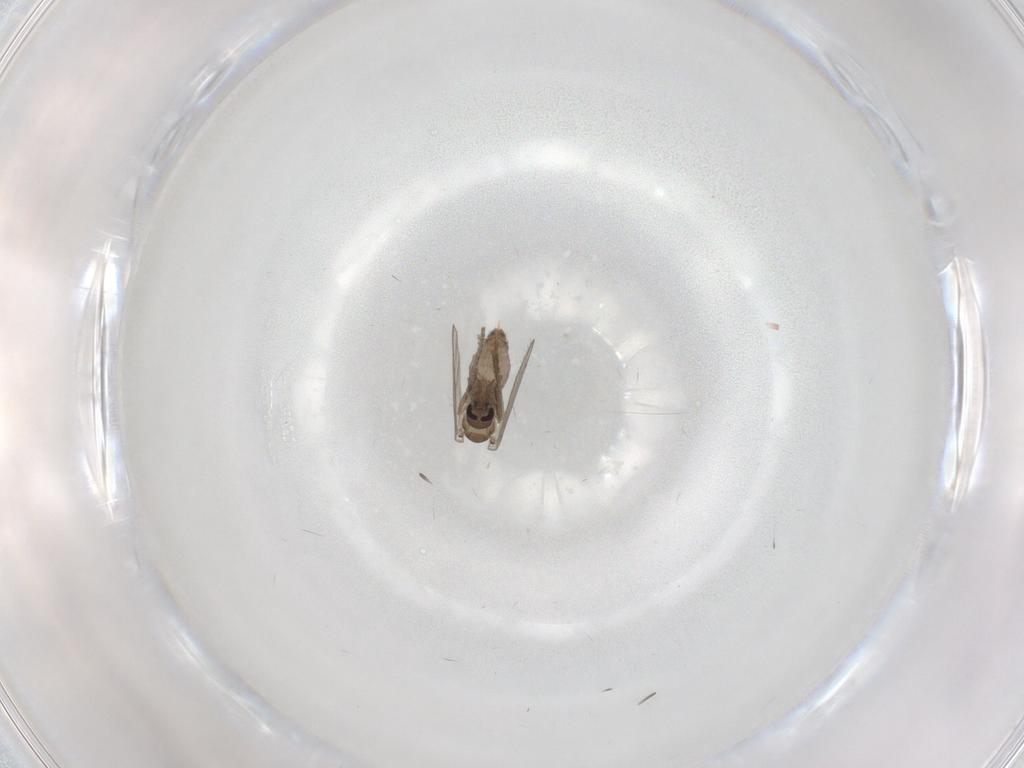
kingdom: Animalia
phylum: Arthropoda
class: Insecta
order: Diptera
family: Psychodidae
